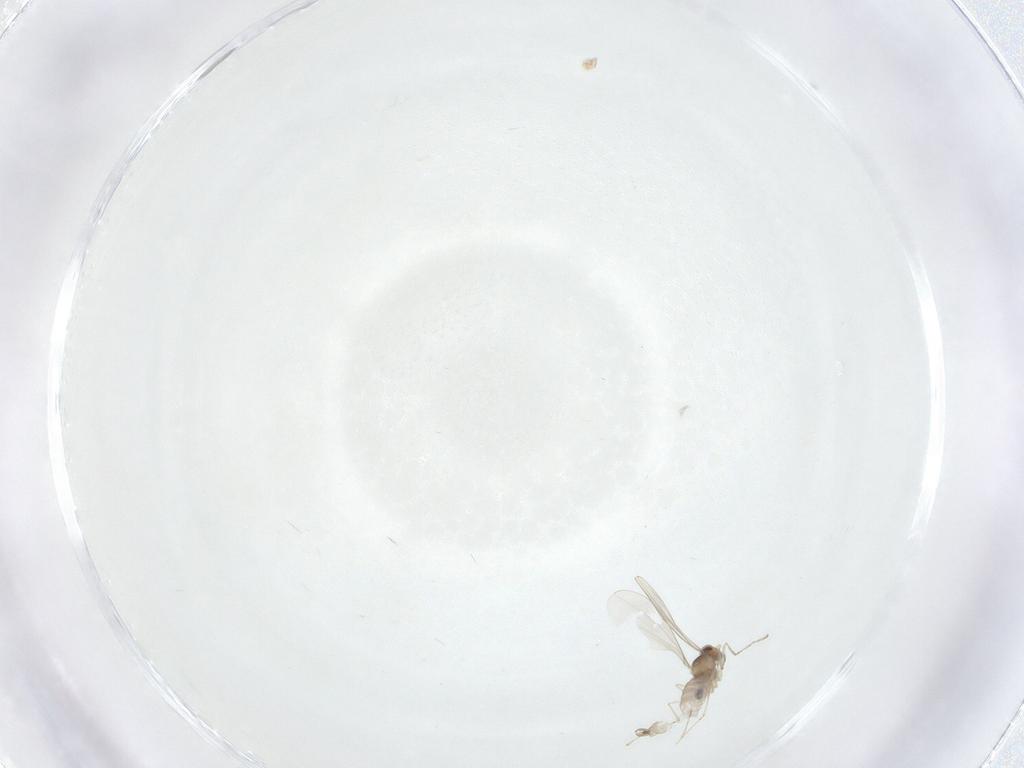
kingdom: Animalia
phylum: Arthropoda
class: Insecta
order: Diptera
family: Cecidomyiidae
